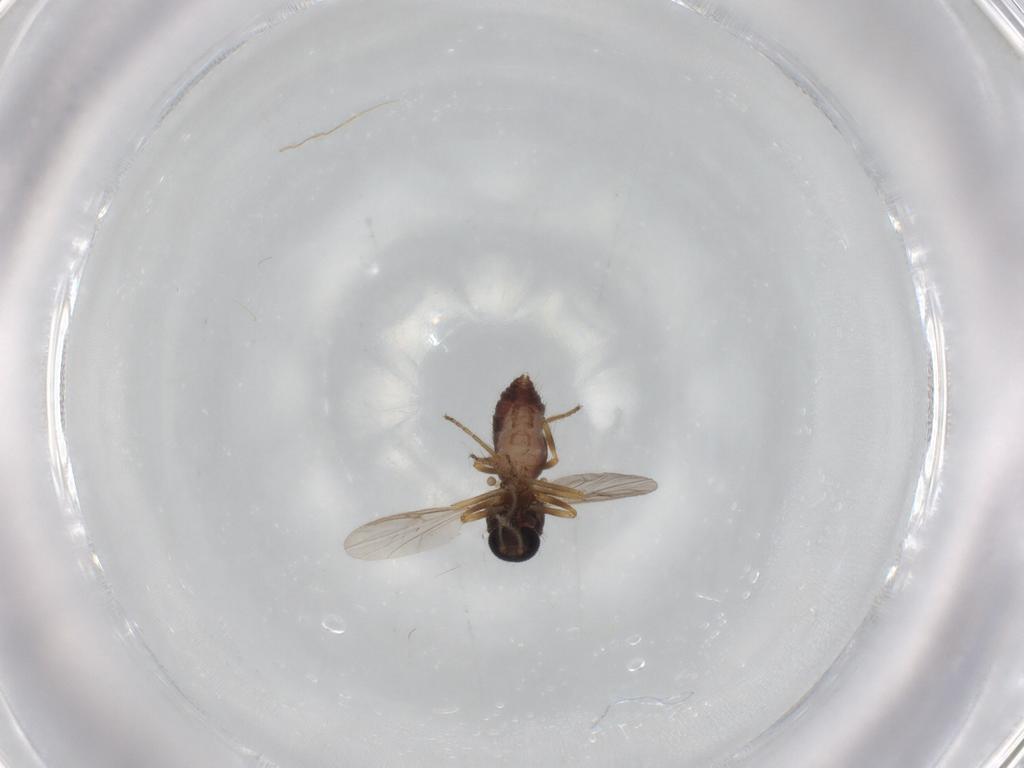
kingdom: Animalia
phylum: Arthropoda
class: Insecta
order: Diptera
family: Ceratopogonidae
